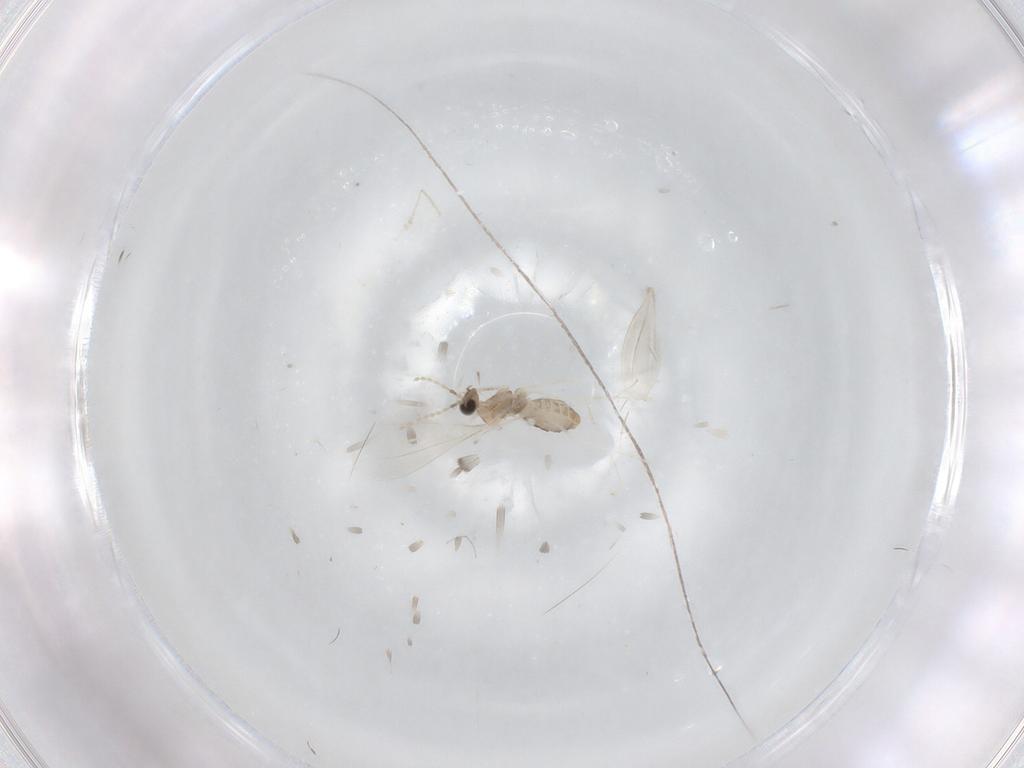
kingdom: Animalia
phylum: Arthropoda
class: Insecta
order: Diptera
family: Cecidomyiidae
